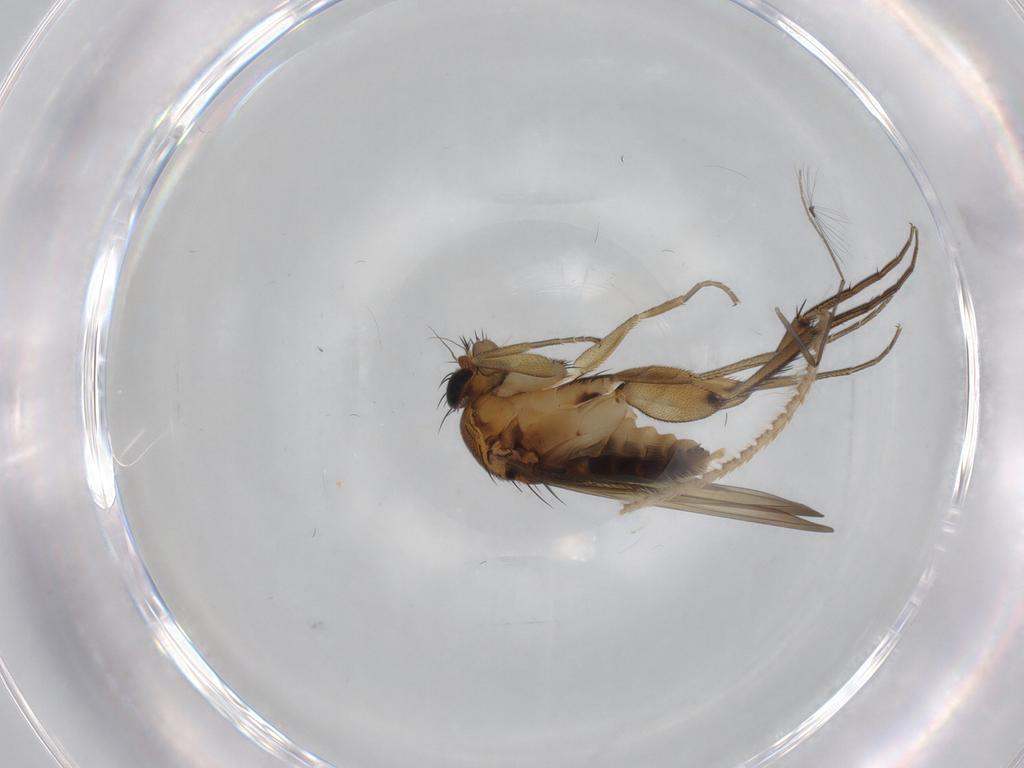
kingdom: Animalia
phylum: Arthropoda
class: Insecta
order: Diptera
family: Phoridae
